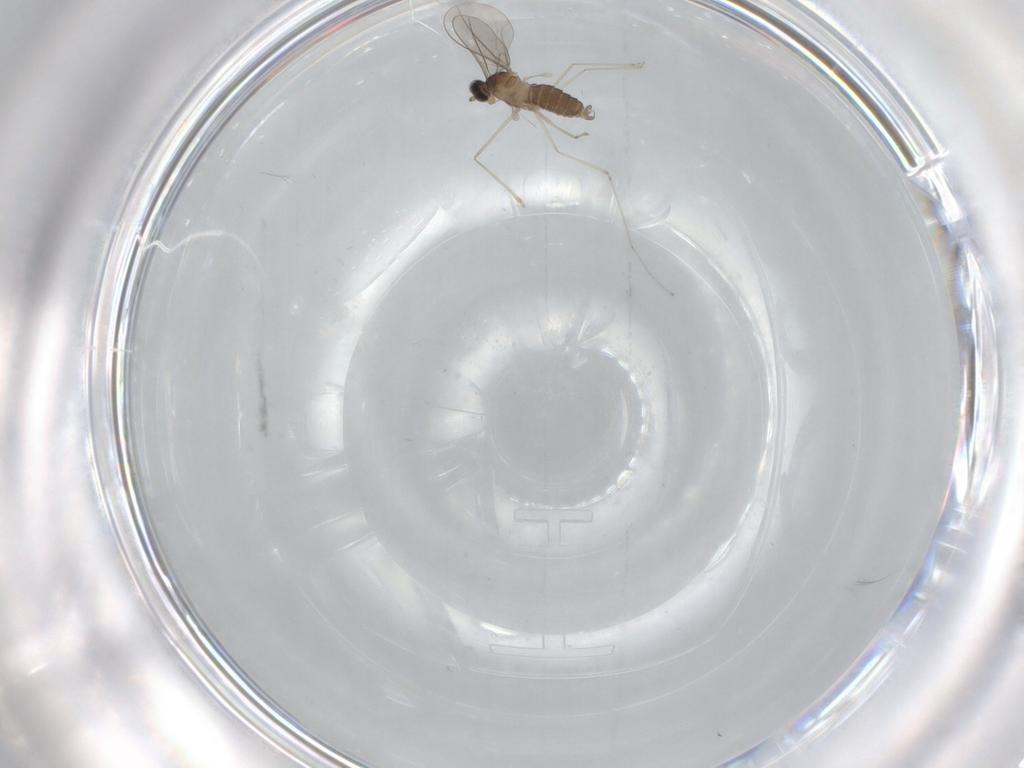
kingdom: Animalia
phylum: Arthropoda
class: Insecta
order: Diptera
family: Cecidomyiidae
